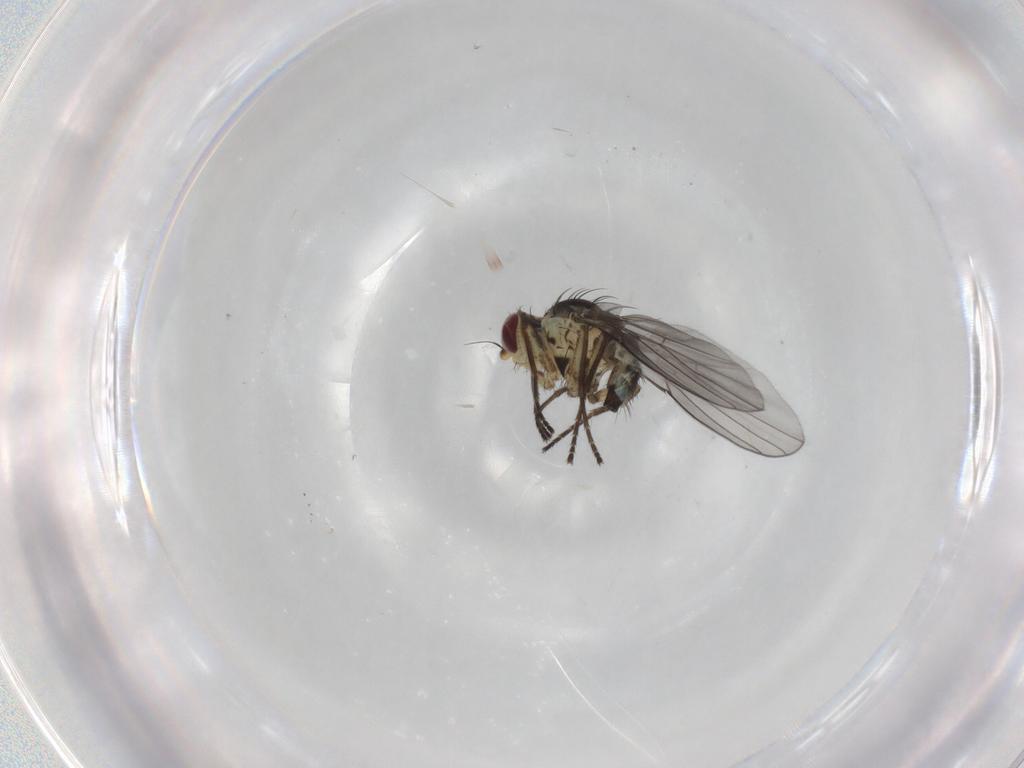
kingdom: Animalia
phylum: Arthropoda
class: Insecta
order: Diptera
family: Agromyzidae
